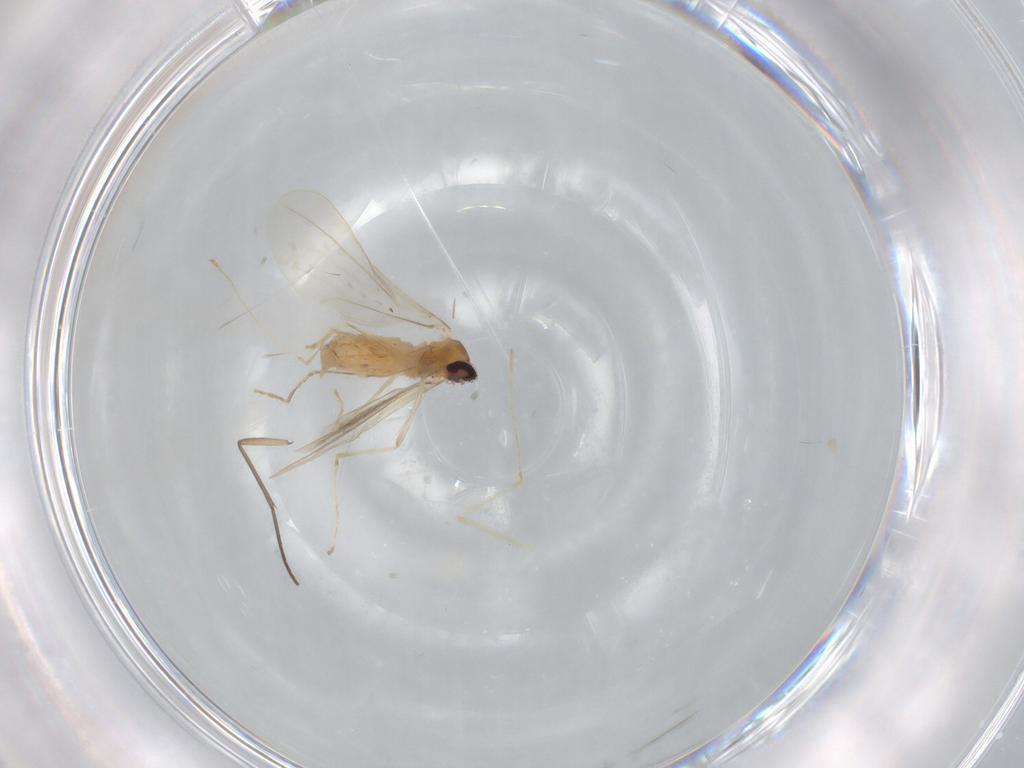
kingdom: Animalia
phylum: Arthropoda
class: Insecta
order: Diptera
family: Cecidomyiidae
